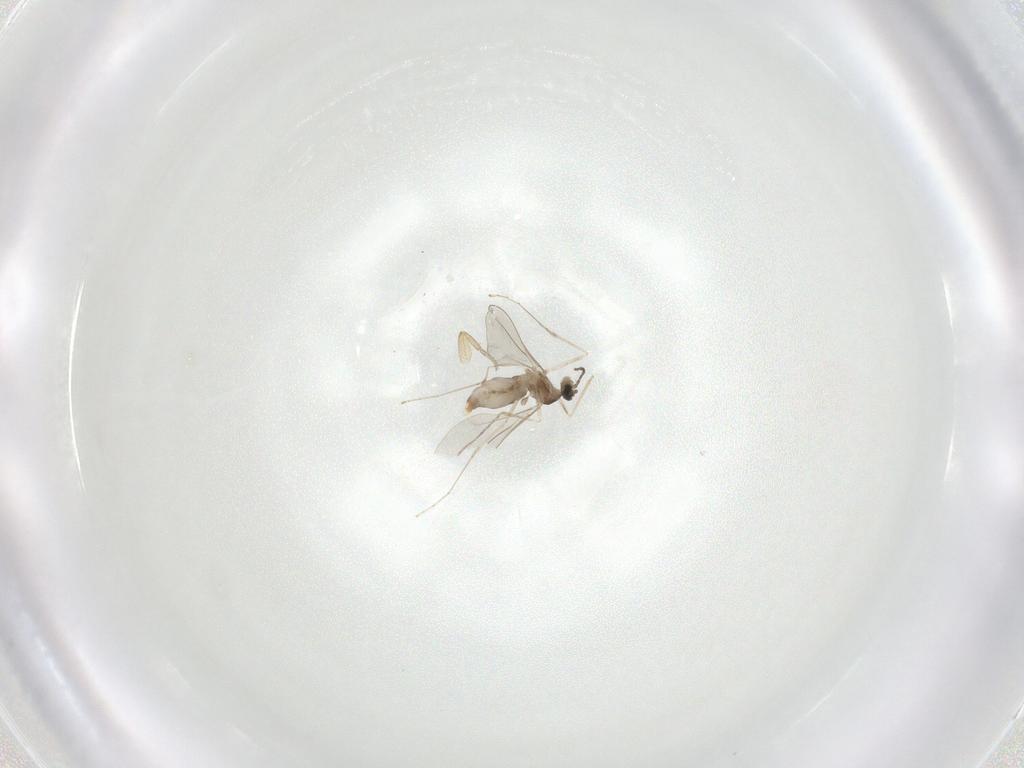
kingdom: Animalia
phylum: Arthropoda
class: Insecta
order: Diptera
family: Cecidomyiidae
